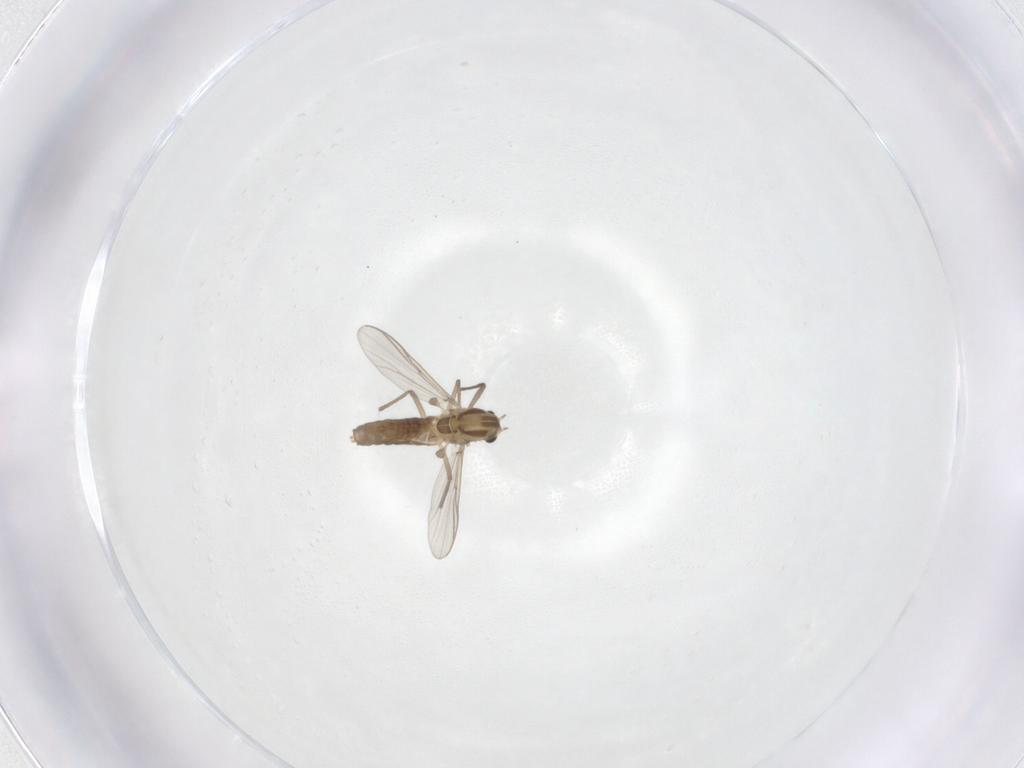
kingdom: Animalia
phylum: Arthropoda
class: Insecta
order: Diptera
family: Chironomidae
